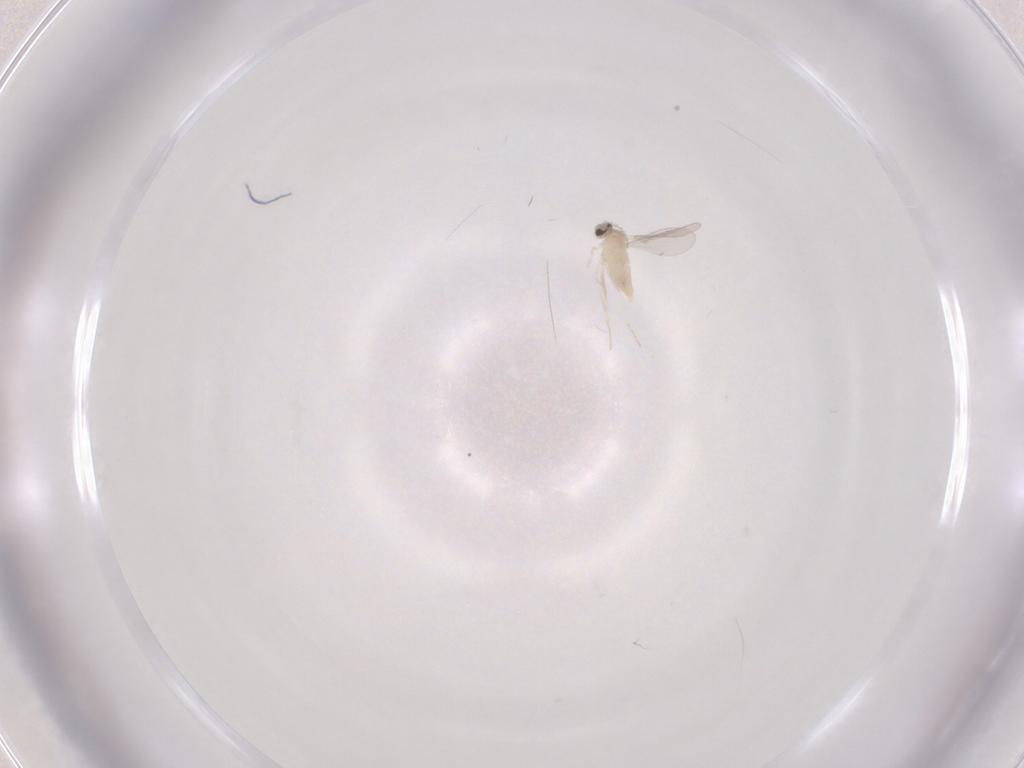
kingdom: Animalia
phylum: Arthropoda
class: Insecta
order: Diptera
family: Cecidomyiidae
